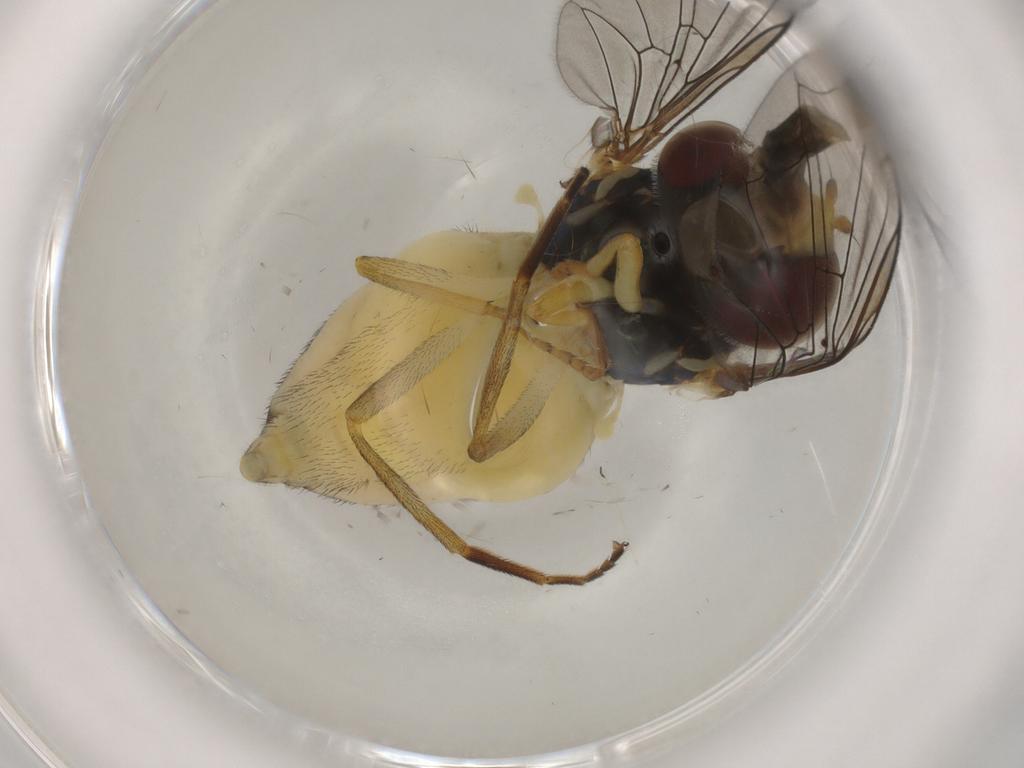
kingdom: Animalia
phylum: Arthropoda
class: Insecta
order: Diptera
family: Syrphidae
